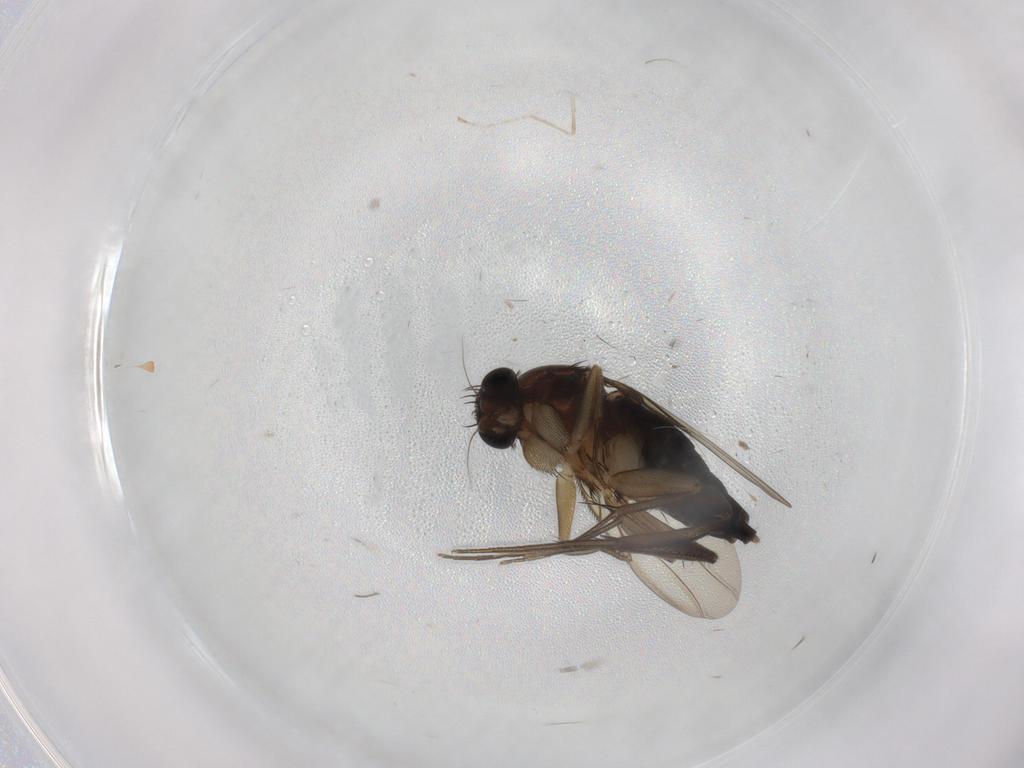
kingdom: Animalia
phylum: Arthropoda
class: Insecta
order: Diptera
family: Phoridae
